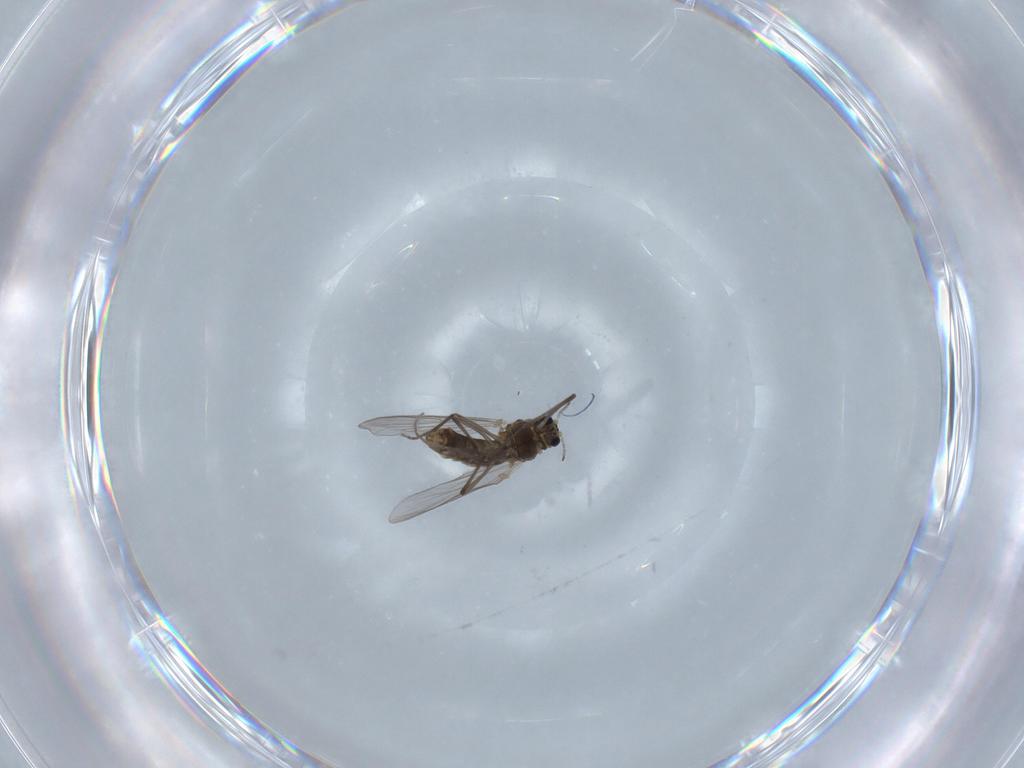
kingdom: Animalia
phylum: Arthropoda
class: Insecta
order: Diptera
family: Chironomidae
